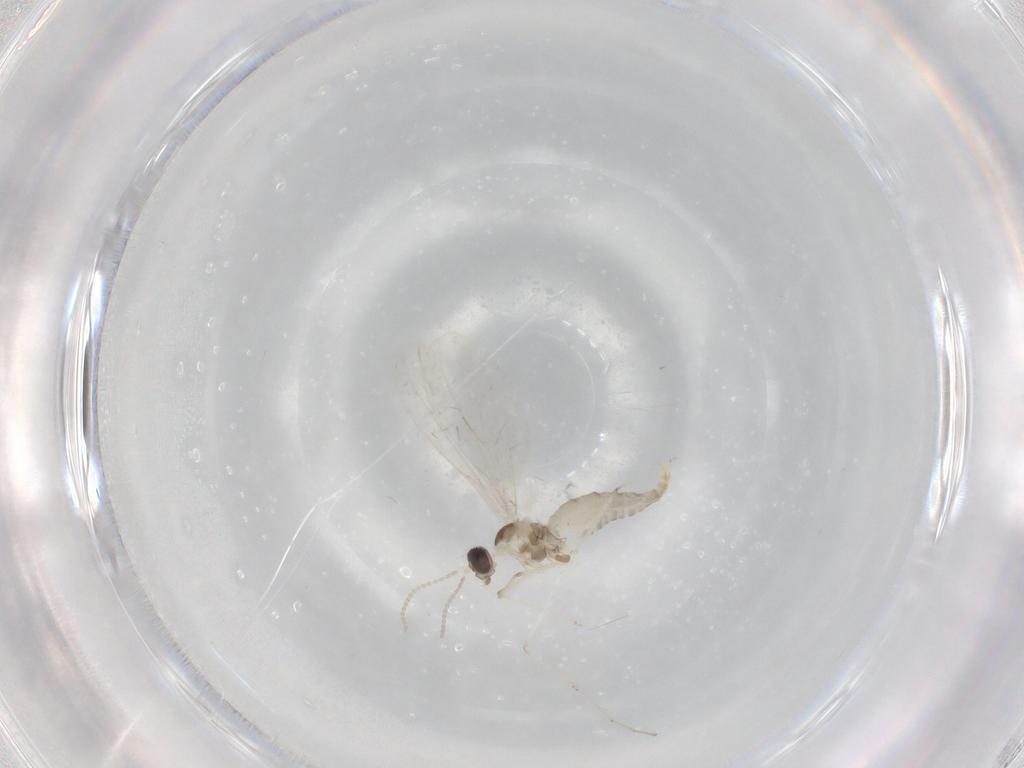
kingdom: Animalia
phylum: Arthropoda
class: Insecta
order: Diptera
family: Cecidomyiidae
